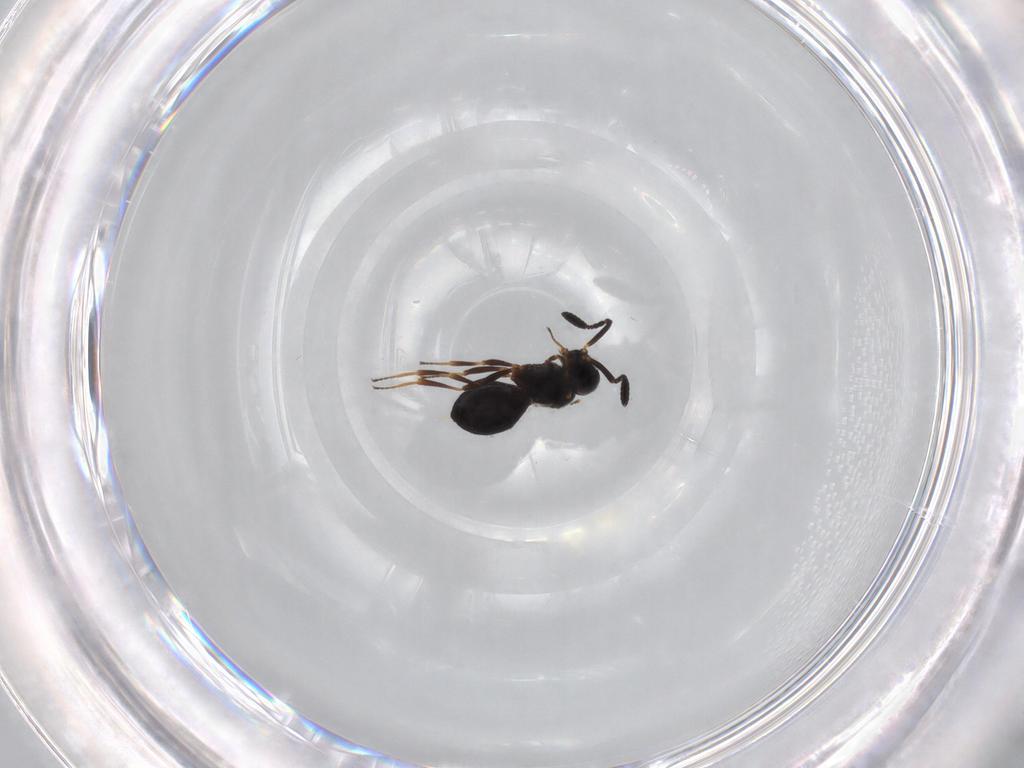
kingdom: Animalia
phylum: Arthropoda
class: Insecta
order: Hymenoptera
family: Scelionidae
